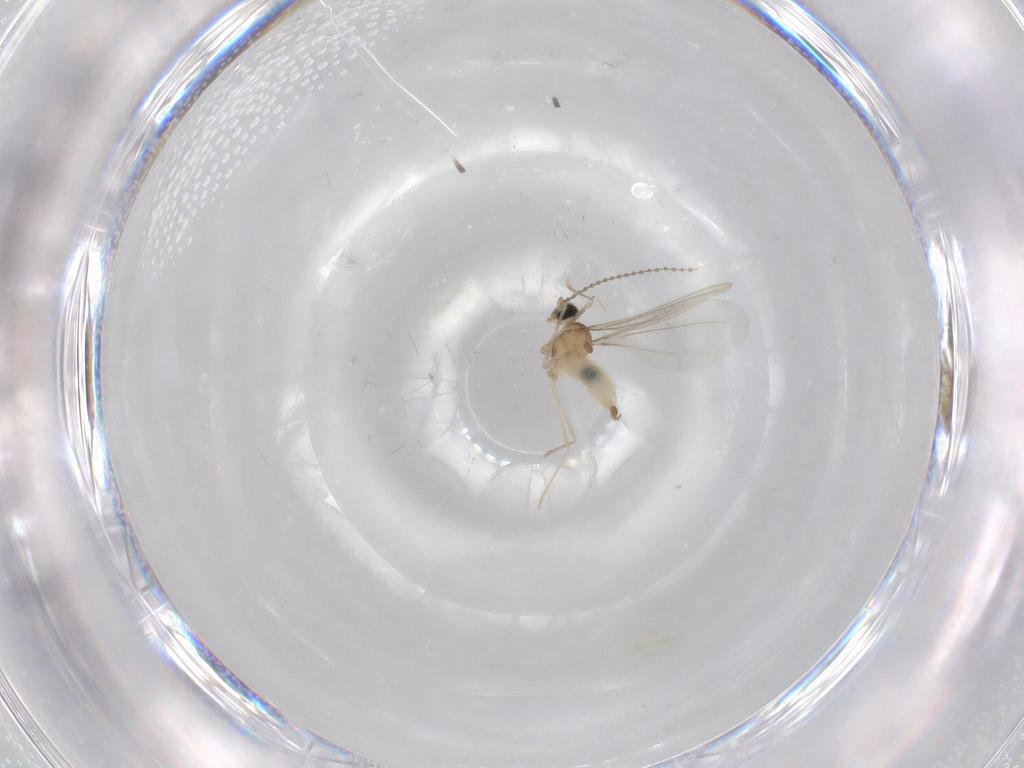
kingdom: Animalia
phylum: Arthropoda
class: Insecta
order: Diptera
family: Cecidomyiidae
